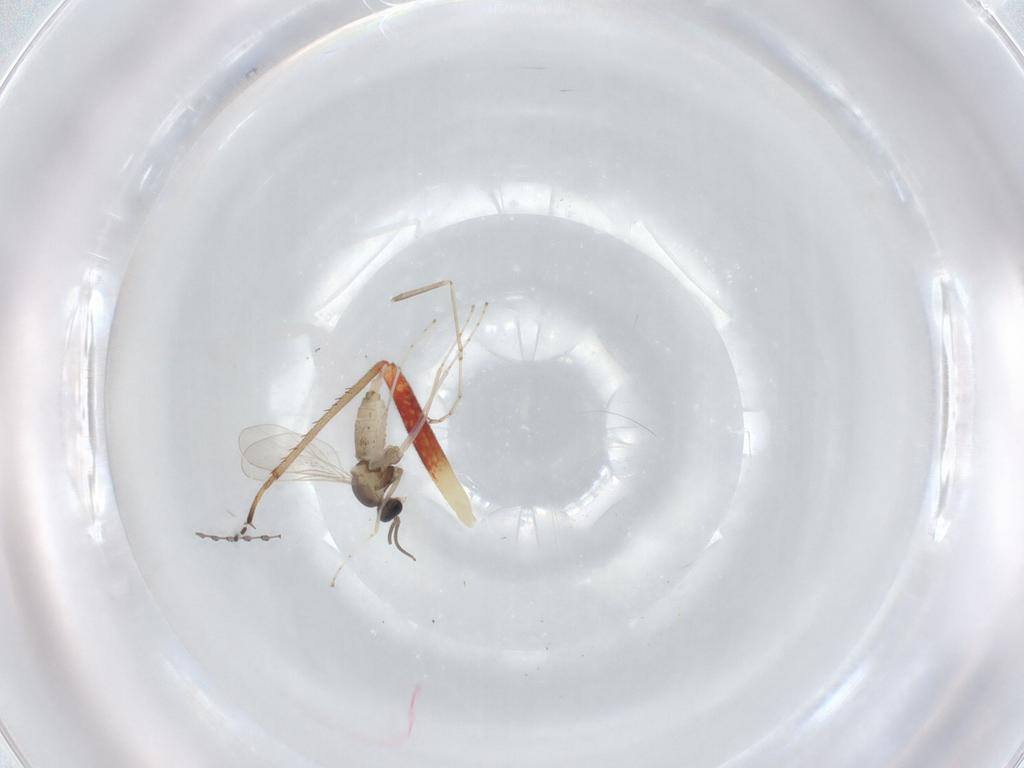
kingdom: Animalia
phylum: Arthropoda
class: Insecta
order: Diptera
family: Cecidomyiidae
